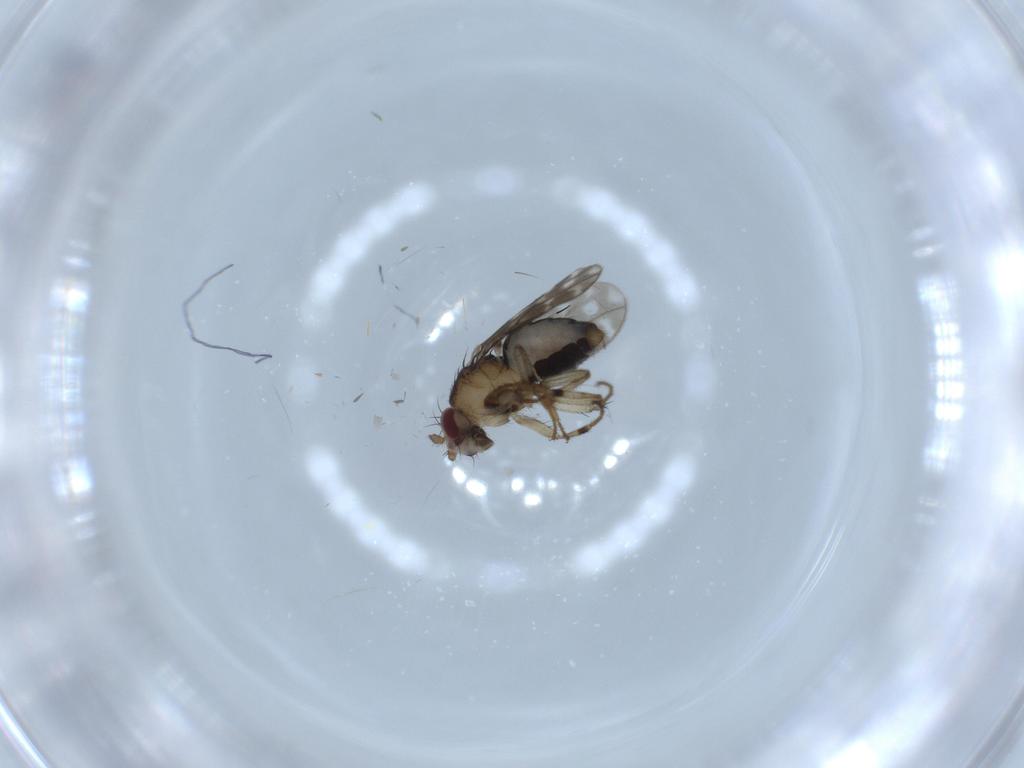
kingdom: Animalia
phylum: Arthropoda
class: Insecta
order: Diptera
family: Sphaeroceridae
